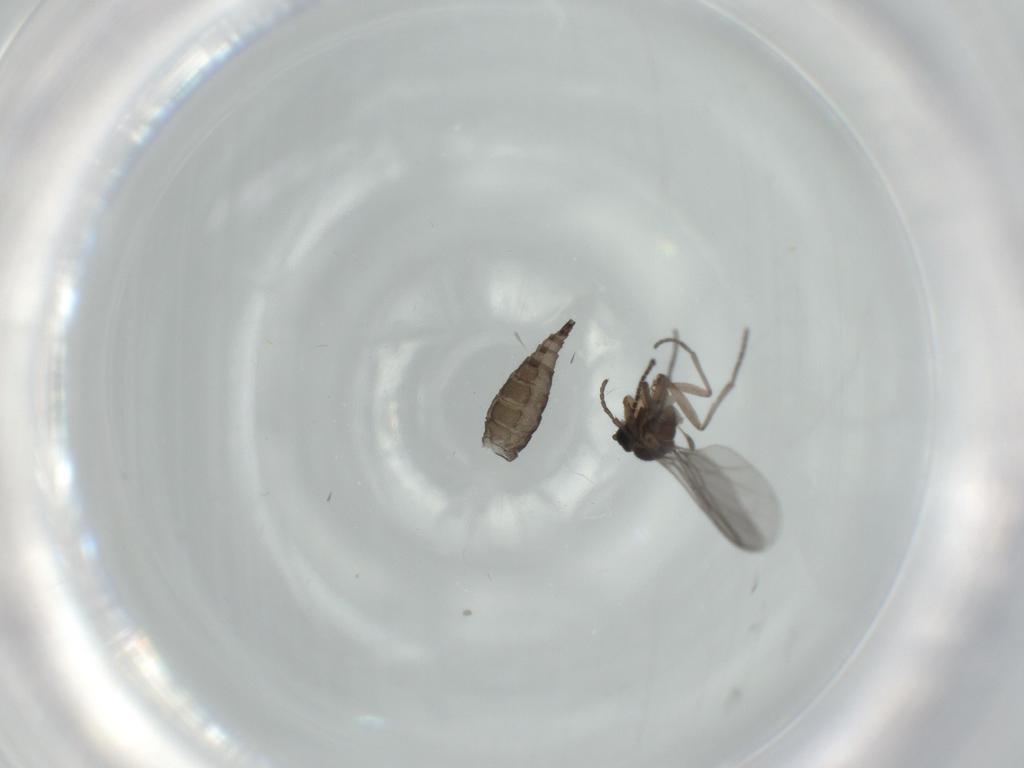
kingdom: Animalia
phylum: Arthropoda
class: Insecta
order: Diptera
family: Sciaridae
